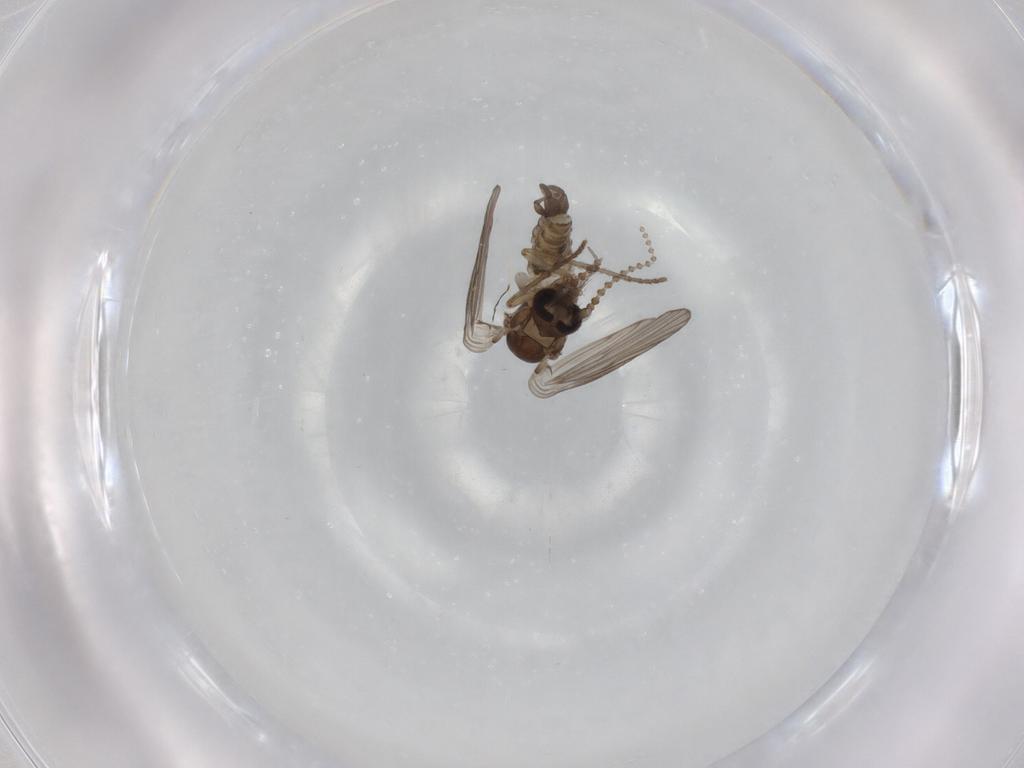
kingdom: Animalia
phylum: Arthropoda
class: Insecta
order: Diptera
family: Psychodidae
